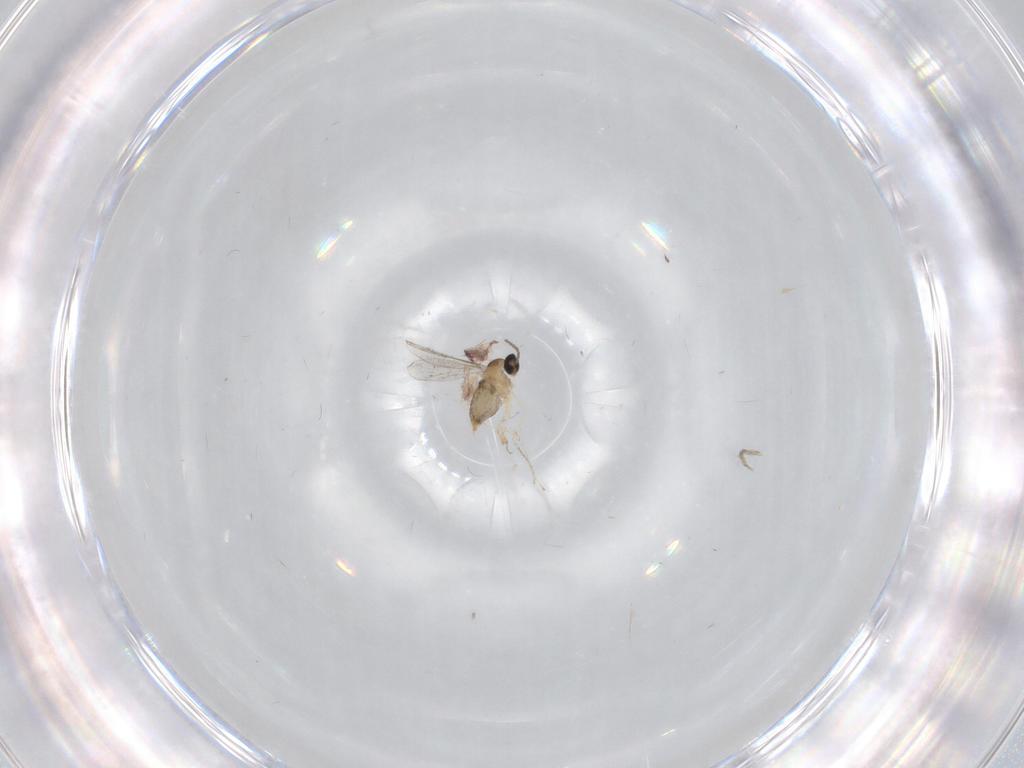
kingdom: Animalia
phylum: Arthropoda
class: Insecta
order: Diptera
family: Cecidomyiidae
